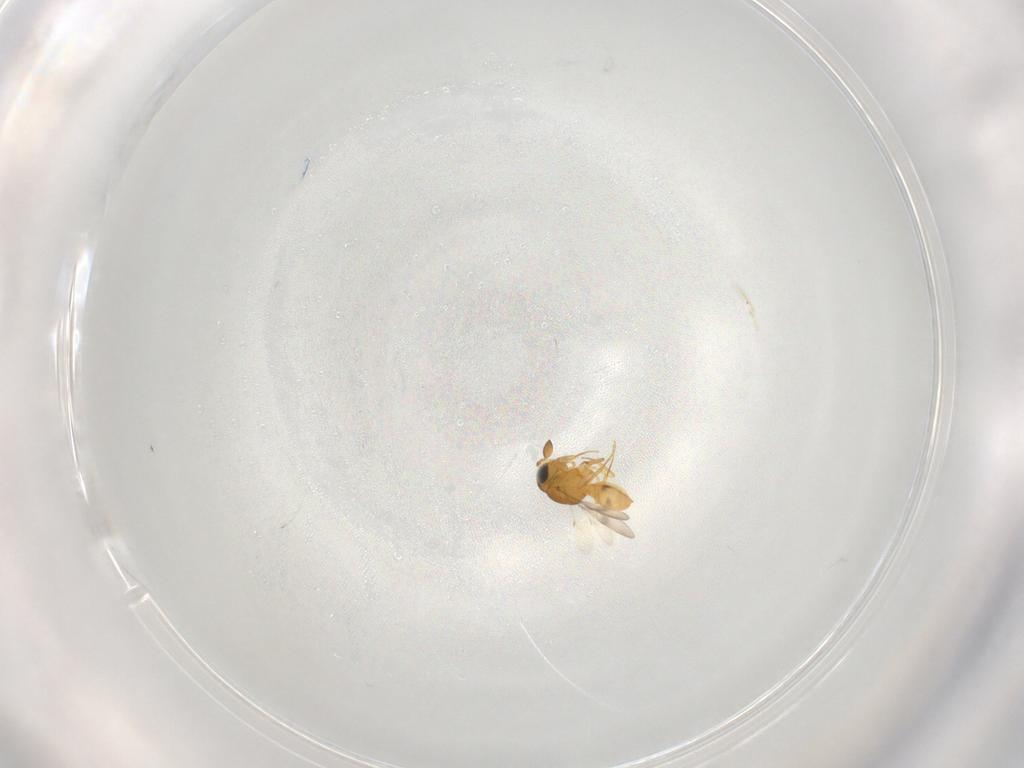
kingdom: Animalia
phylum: Arthropoda
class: Insecta
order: Hymenoptera
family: Scelionidae
